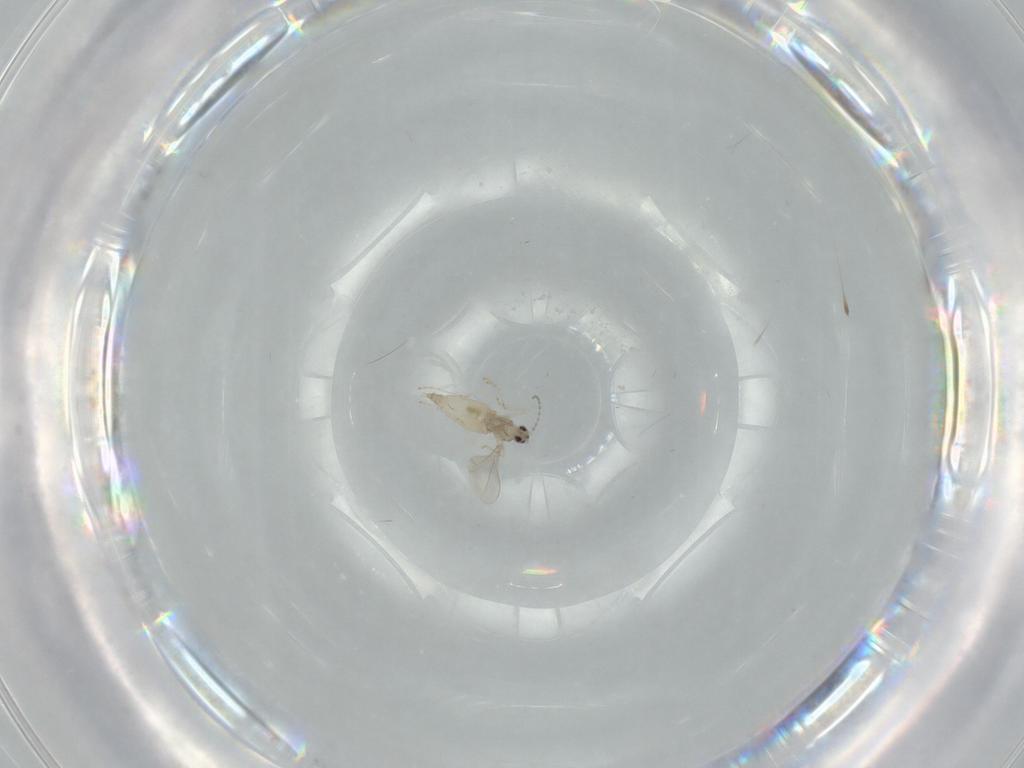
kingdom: Animalia
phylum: Arthropoda
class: Insecta
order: Diptera
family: Cecidomyiidae
